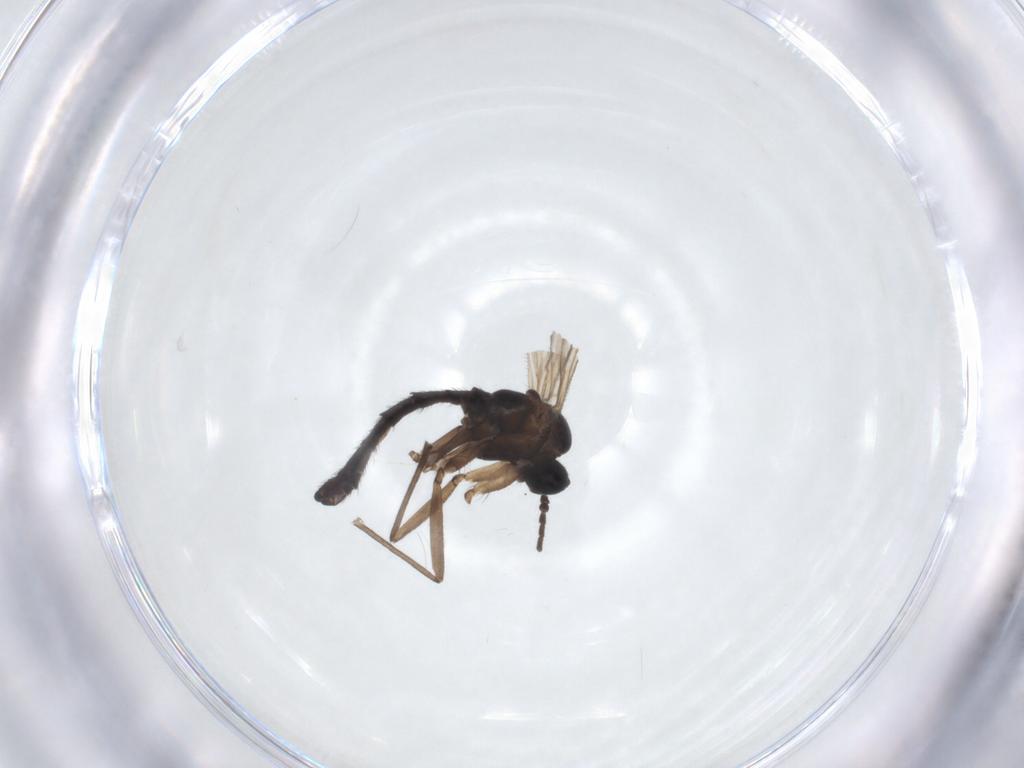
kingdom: Animalia
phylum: Arthropoda
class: Insecta
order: Diptera
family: Sciaridae
